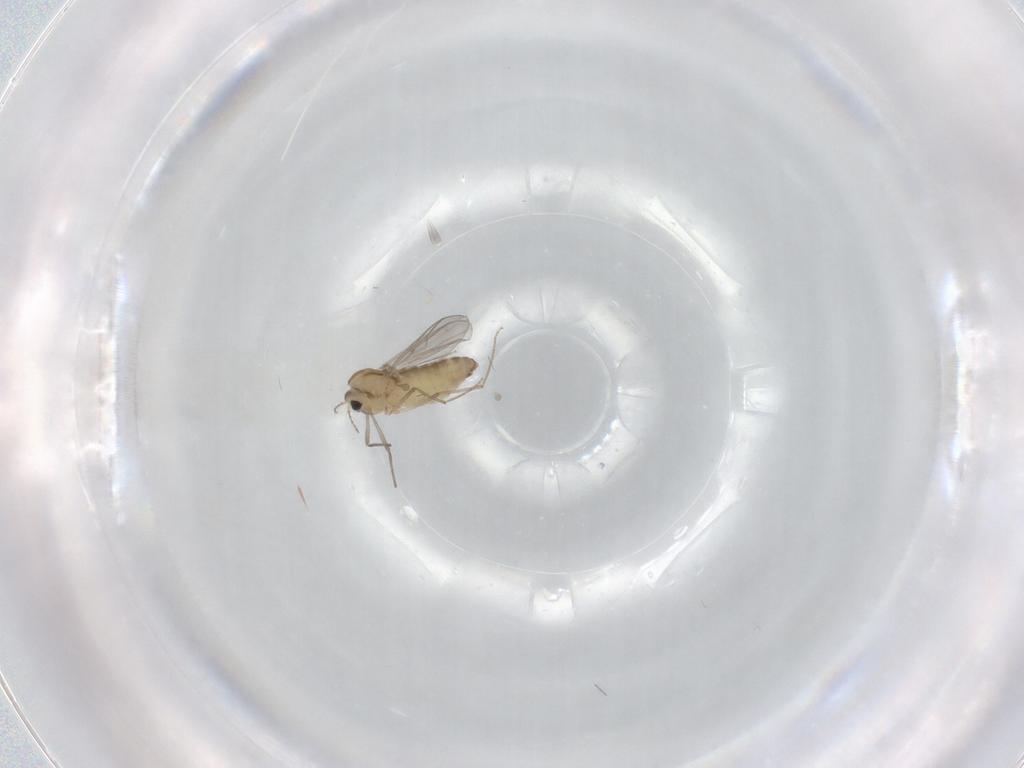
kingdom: Animalia
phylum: Arthropoda
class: Insecta
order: Diptera
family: Chironomidae
